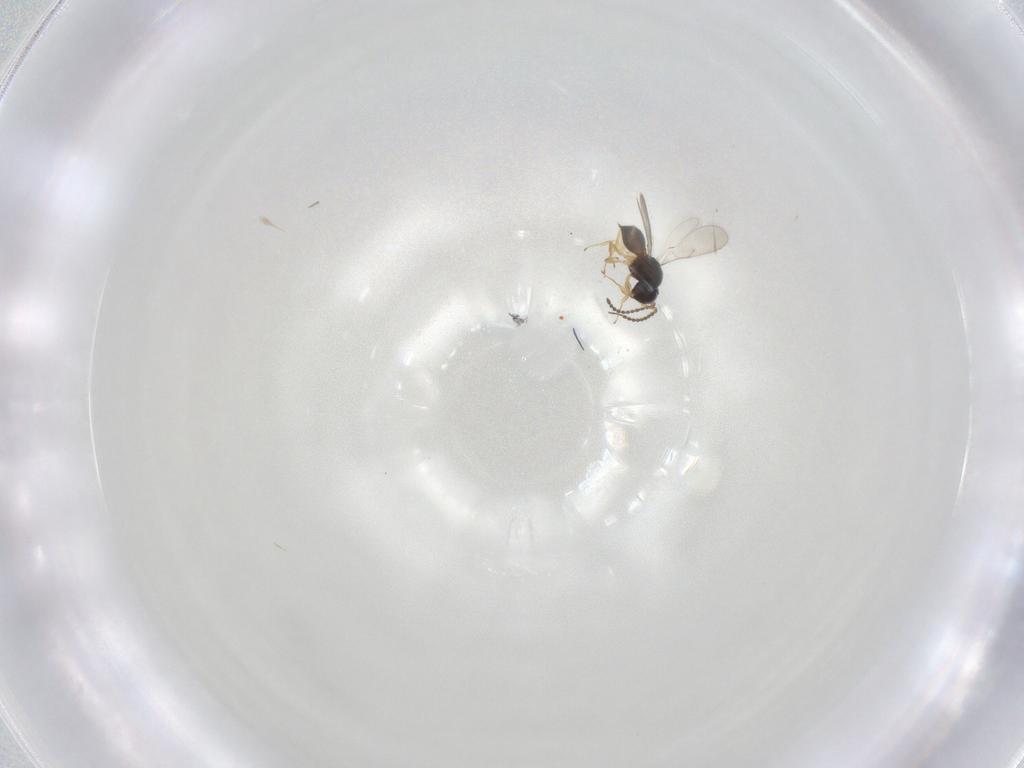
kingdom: Animalia
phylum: Arthropoda
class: Insecta
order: Hymenoptera
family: Scelionidae
